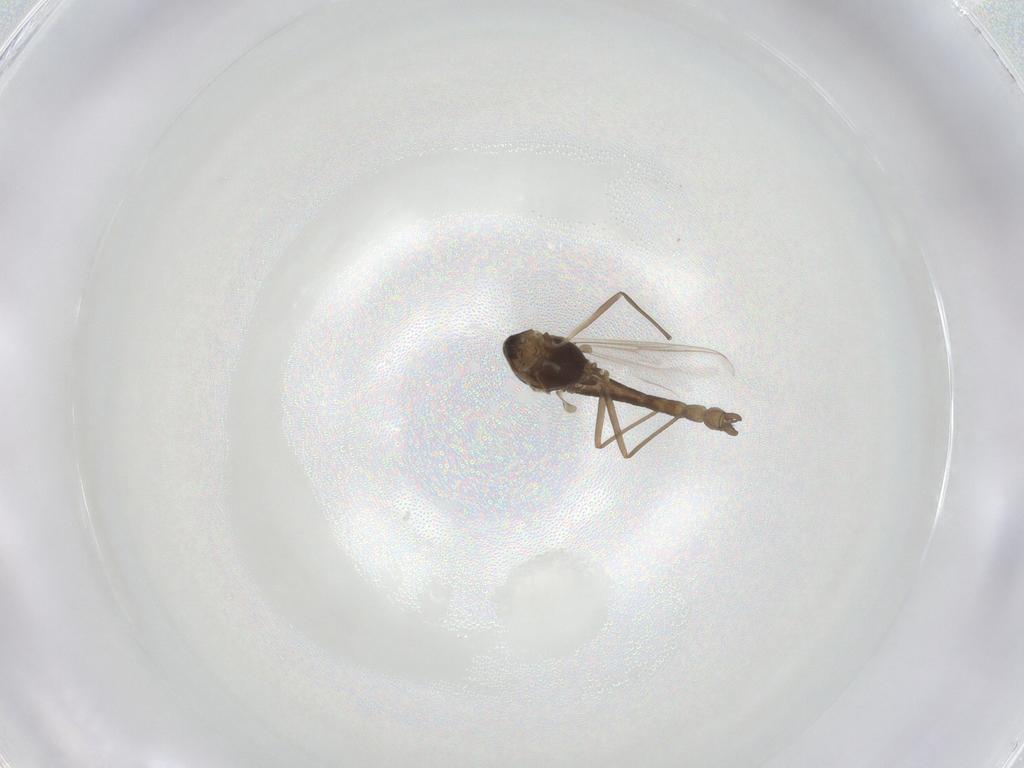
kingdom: Animalia
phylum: Arthropoda
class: Insecta
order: Diptera
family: Chironomidae
